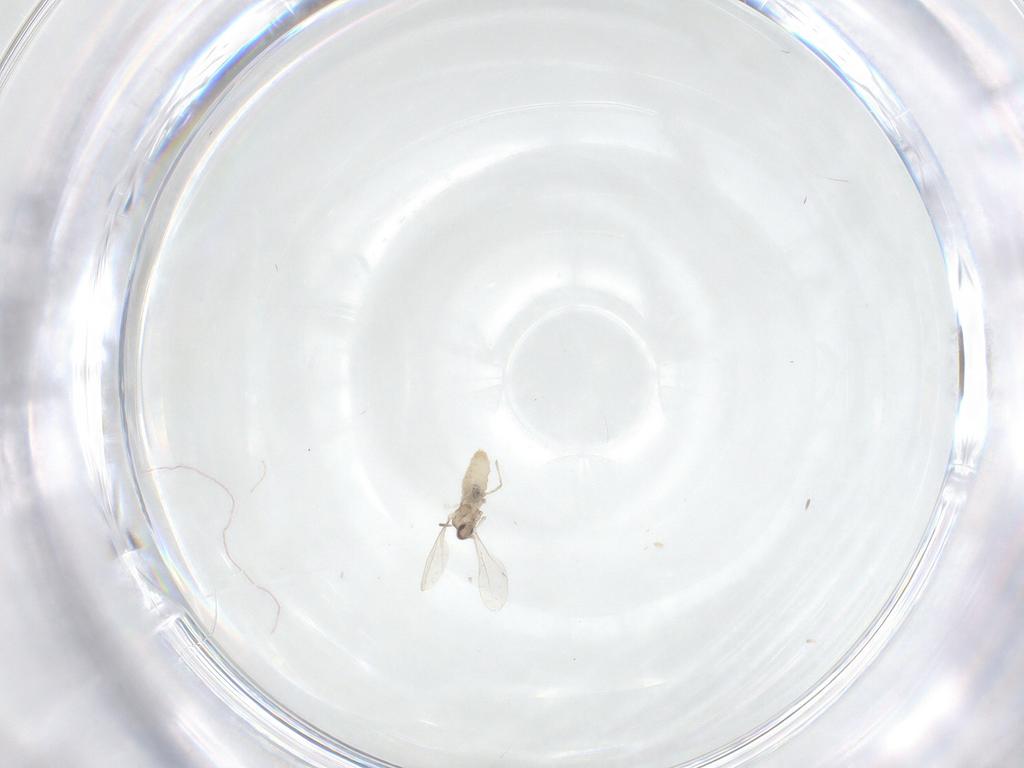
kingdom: Animalia
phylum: Arthropoda
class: Insecta
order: Diptera
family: Cecidomyiidae
